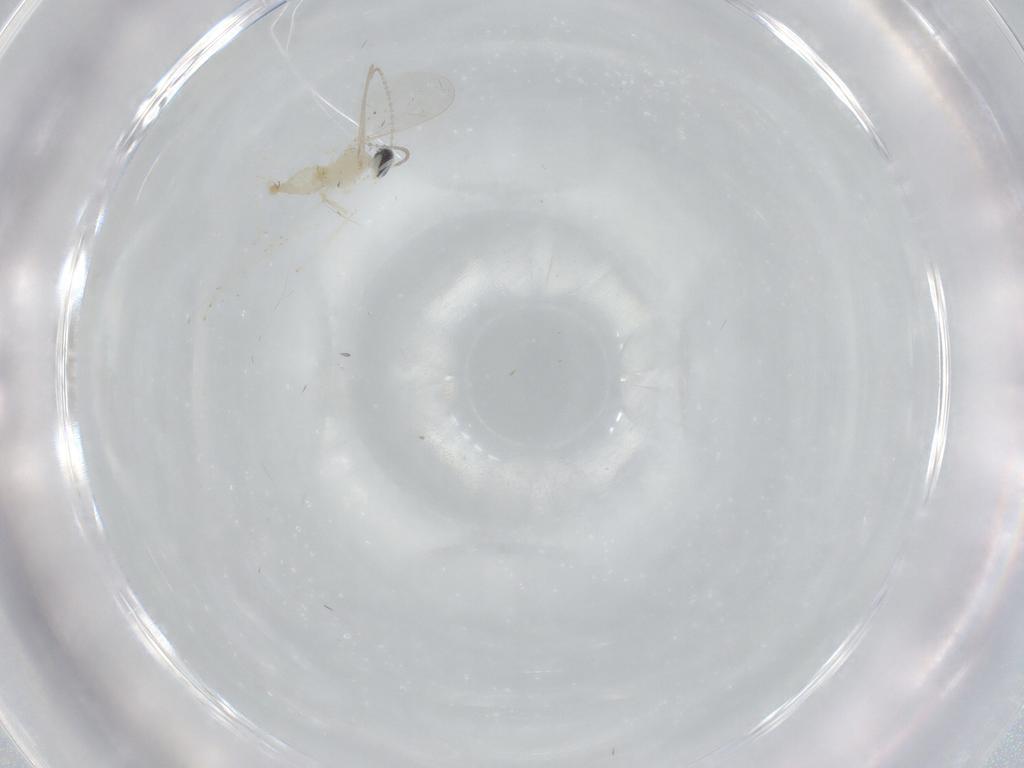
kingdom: Animalia
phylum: Arthropoda
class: Insecta
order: Diptera
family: Cecidomyiidae
